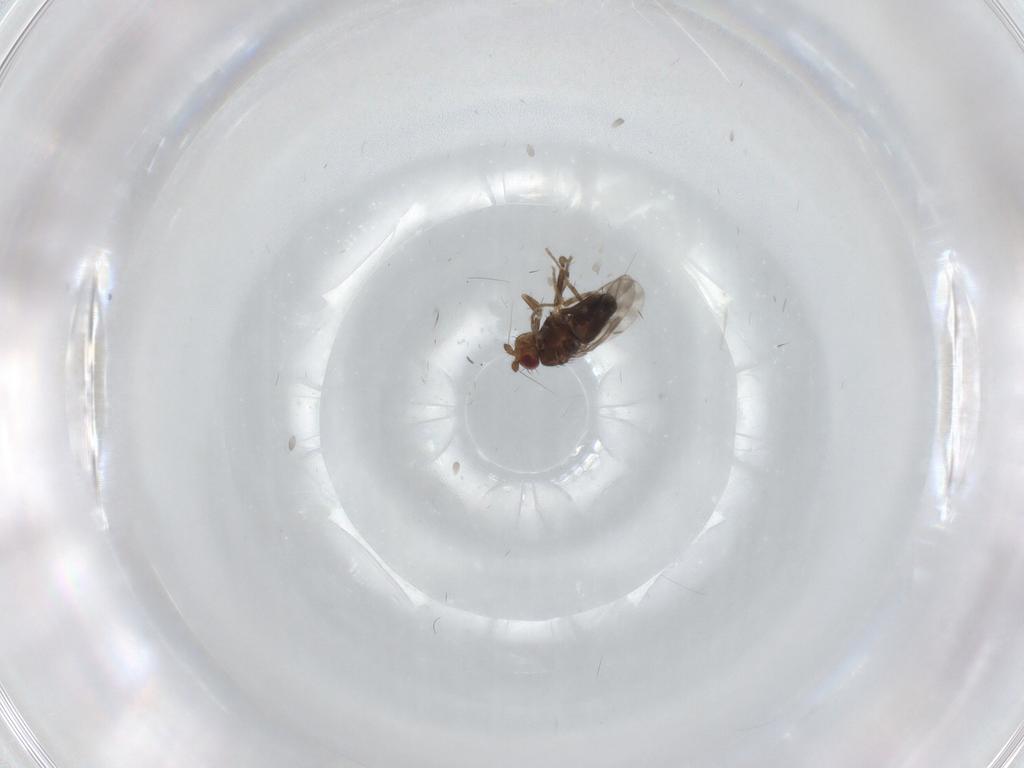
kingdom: Animalia
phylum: Arthropoda
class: Insecta
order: Diptera
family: Sphaeroceridae
